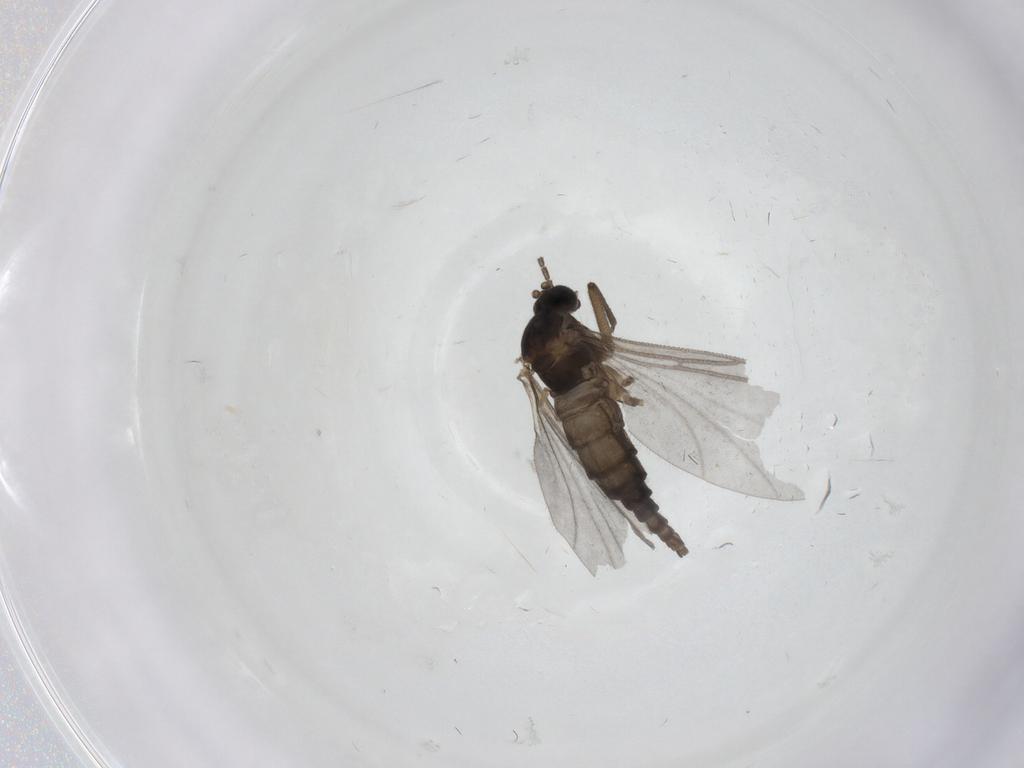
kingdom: Animalia
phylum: Arthropoda
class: Insecta
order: Diptera
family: Sciaridae
